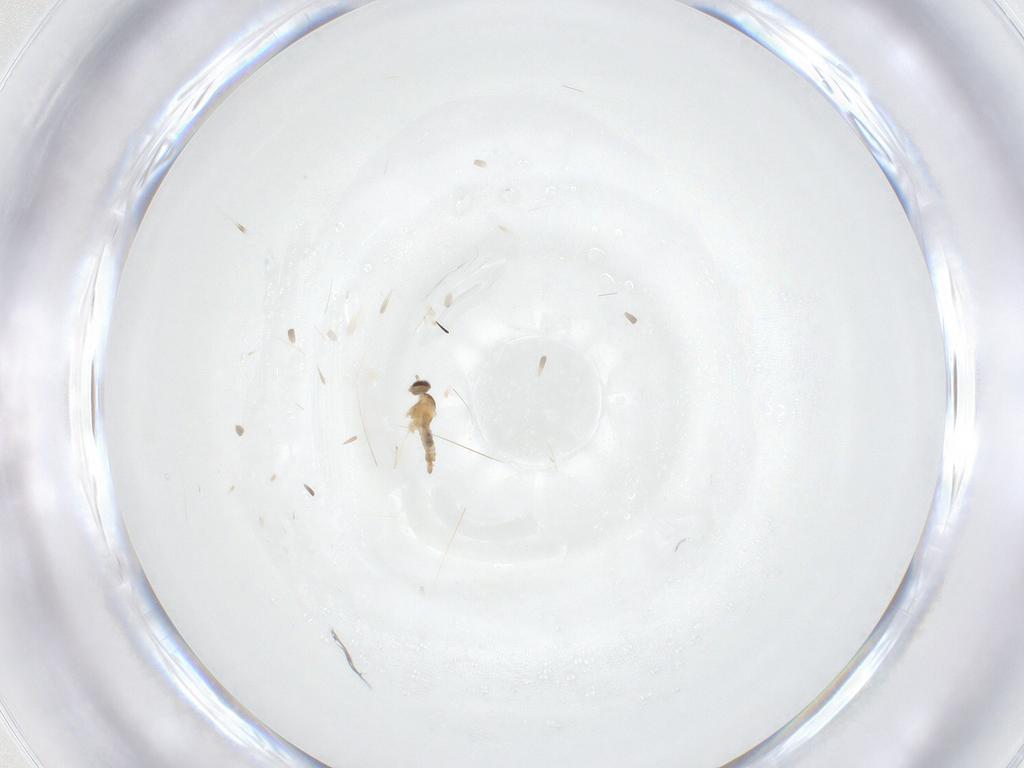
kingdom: Animalia
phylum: Arthropoda
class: Insecta
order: Diptera
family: Cecidomyiidae
